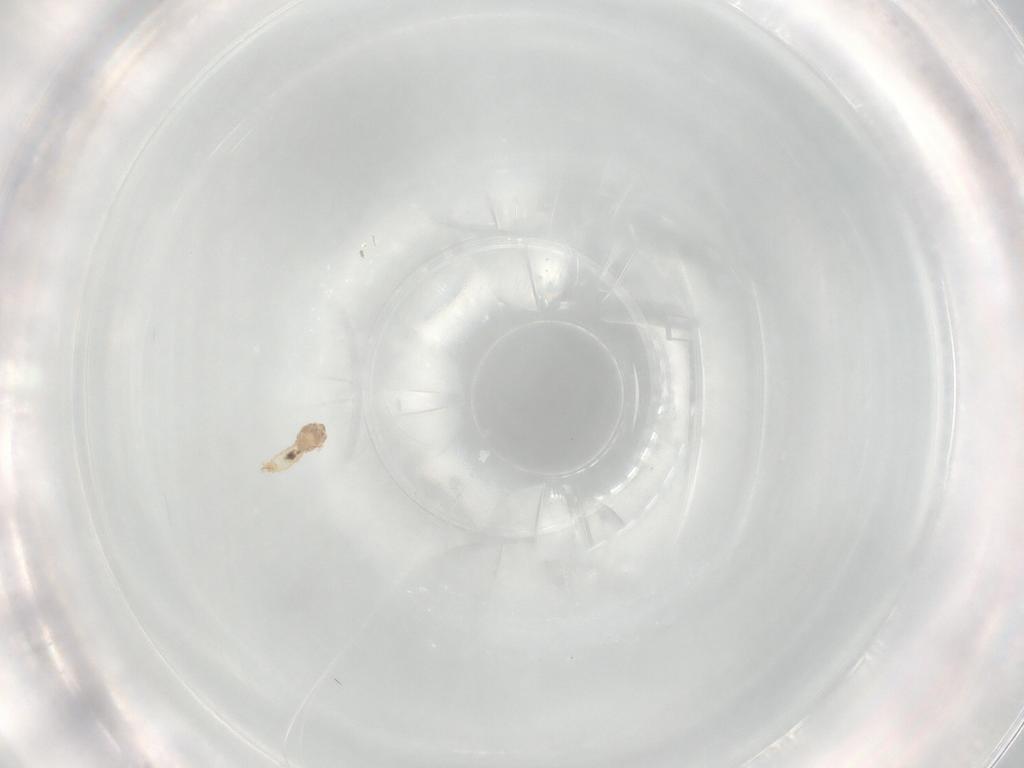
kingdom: Animalia
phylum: Arthropoda
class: Insecta
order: Diptera
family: Cecidomyiidae
